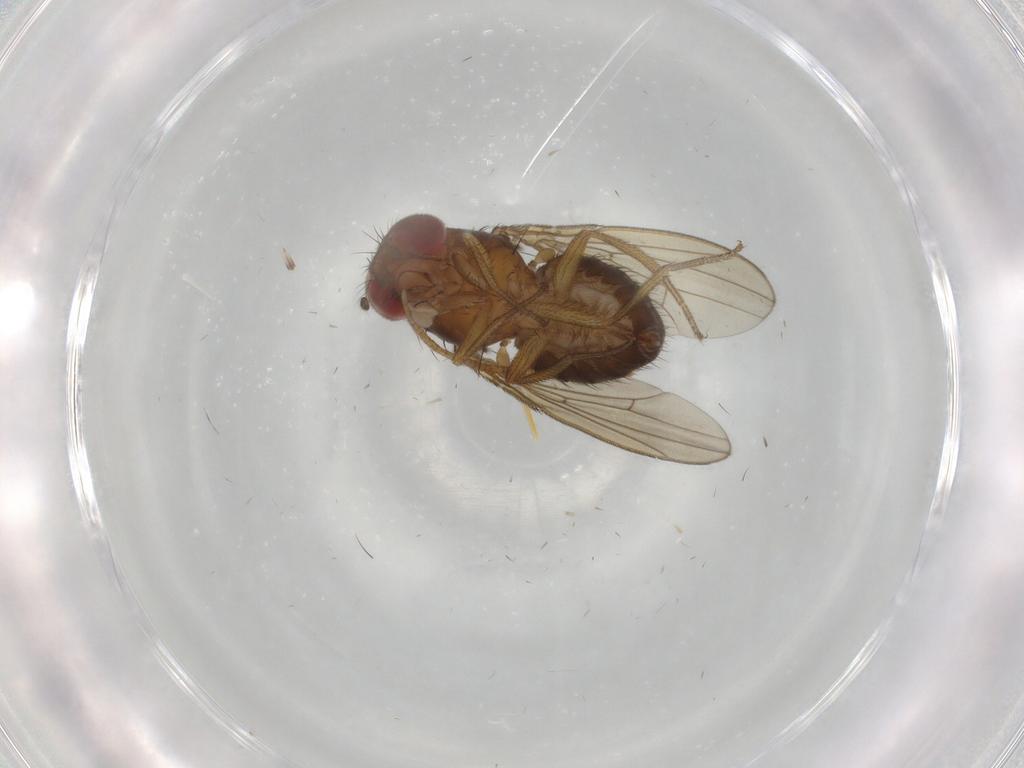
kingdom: Animalia
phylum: Arthropoda
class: Insecta
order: Diptera
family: Drosophilidae
